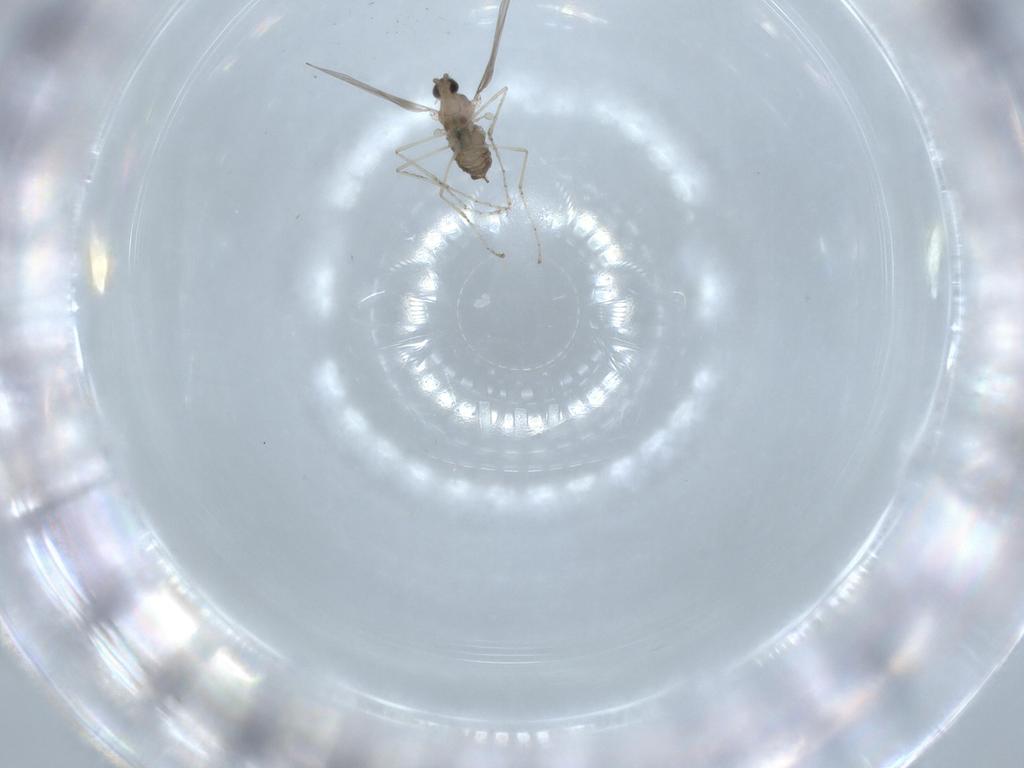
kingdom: Animalia
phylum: Arthropoda
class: Insecta
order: Diptera
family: Cecidomyiidae
